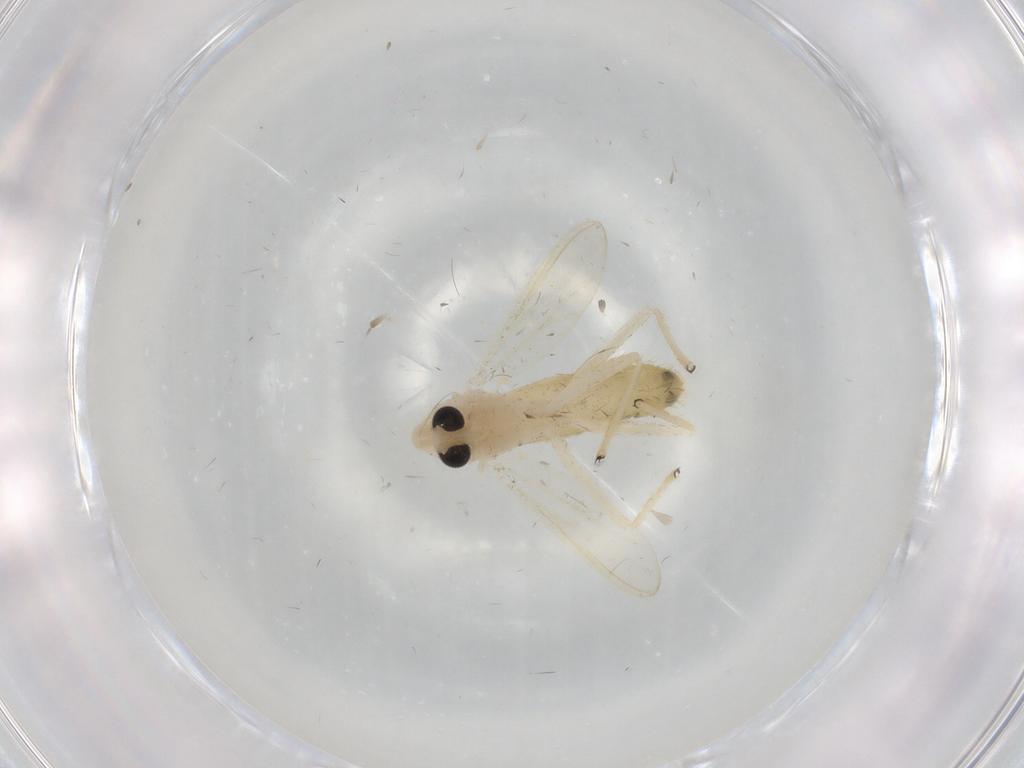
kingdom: Animalia
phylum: Arthropoda
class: Insecta
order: Diptera
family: Chironomidae
